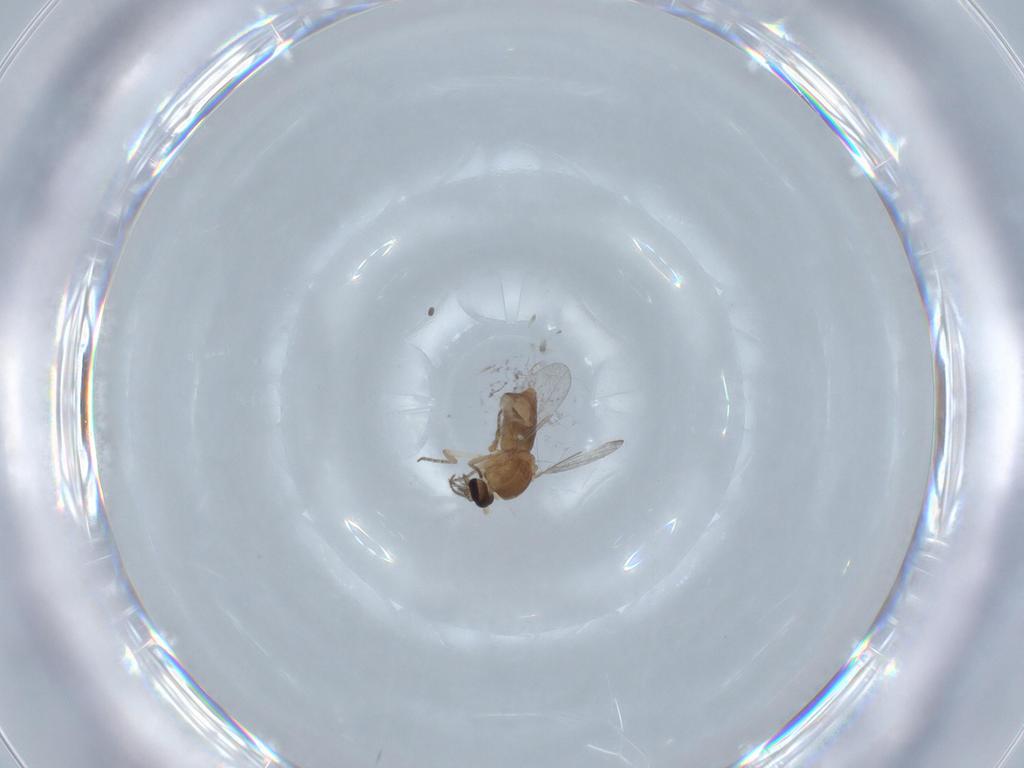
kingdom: Animalia
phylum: Arthropoda
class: Insecta
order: Diptera
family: Ceratopogonidae
